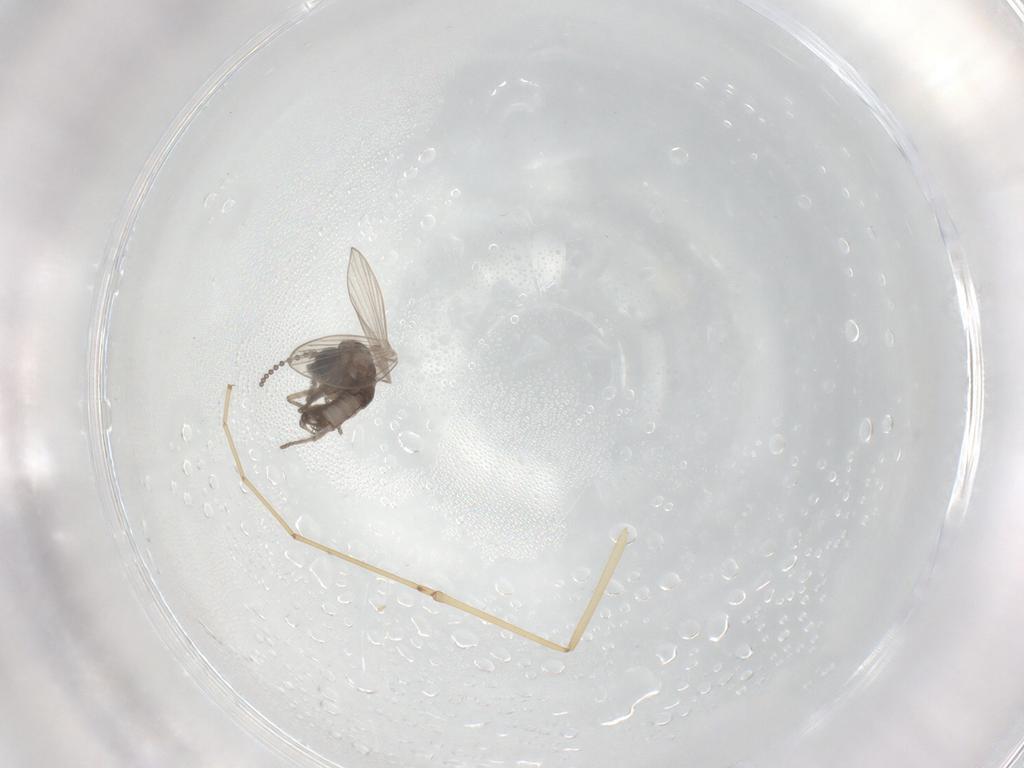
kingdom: Animalia
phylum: Arthropoda
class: Insecta
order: Diptera
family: Psychodidae
